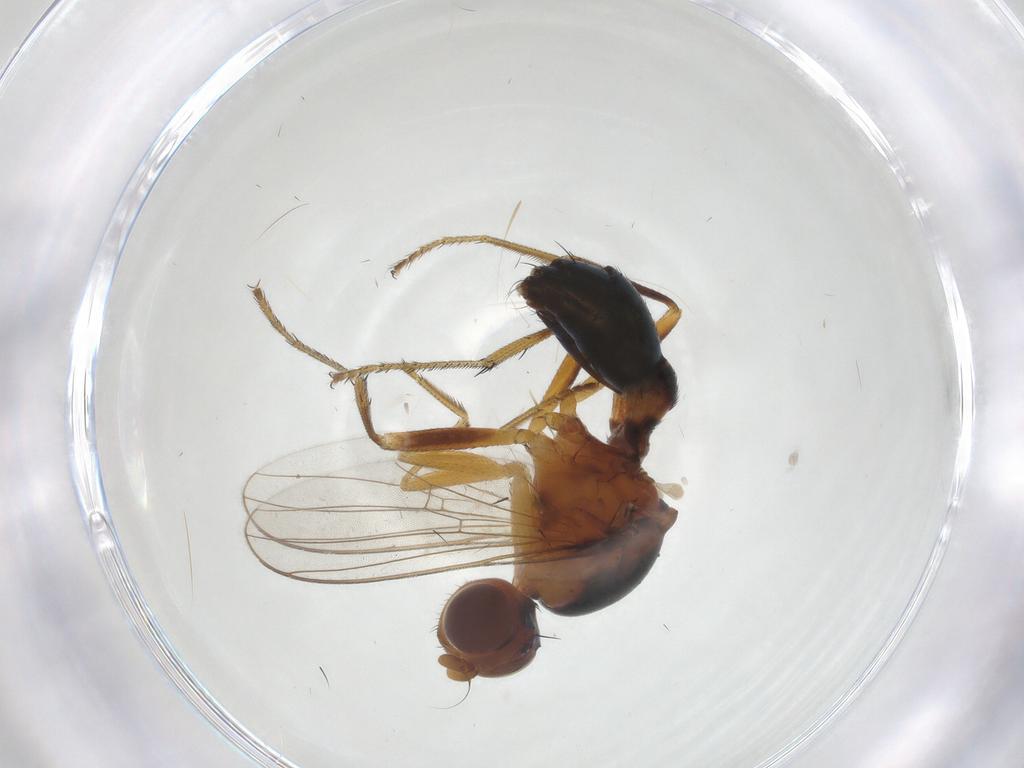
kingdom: Animalia
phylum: Arthropoda
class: Insecta
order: Diptera
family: Sepsidae
